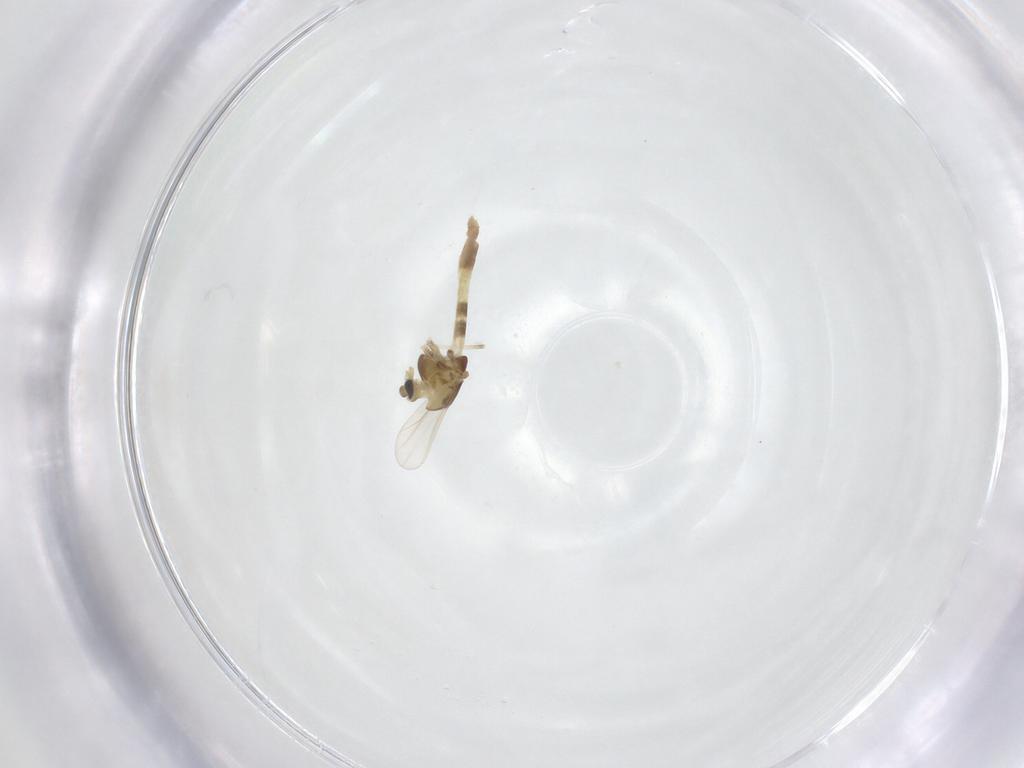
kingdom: Animalia
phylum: Arthropoda
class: Insecta
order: Diptera
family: Chironomidae
